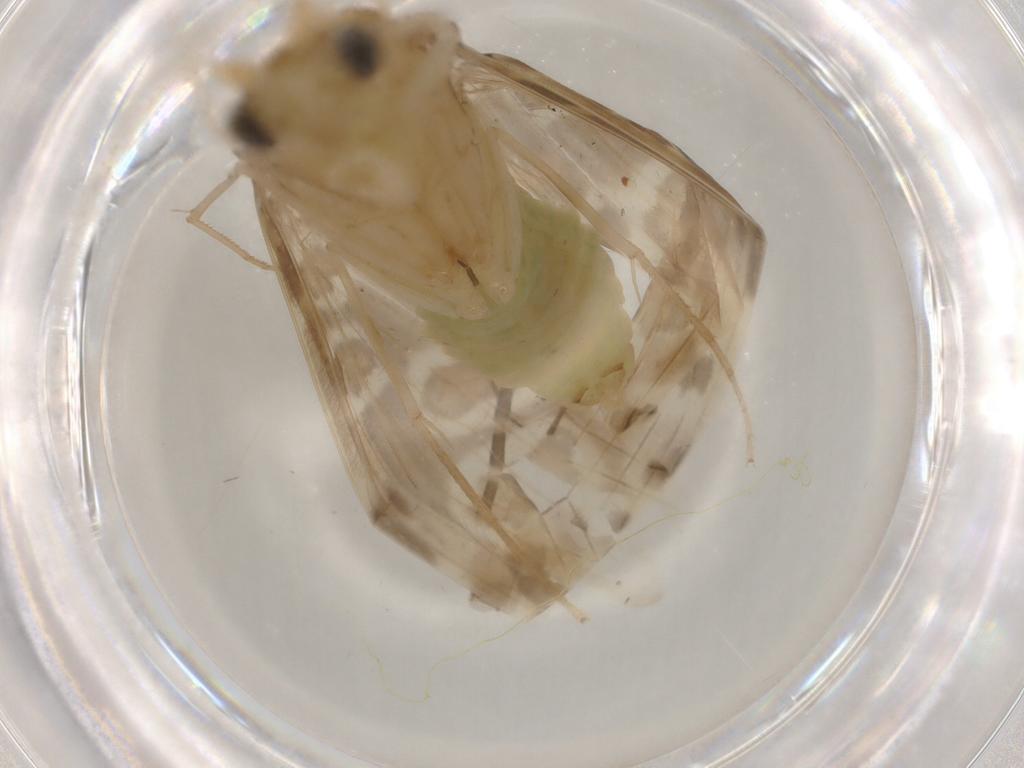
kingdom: Animalia
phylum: Arthropoda
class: Insecta
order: Trichoptera
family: Leptoceridae
